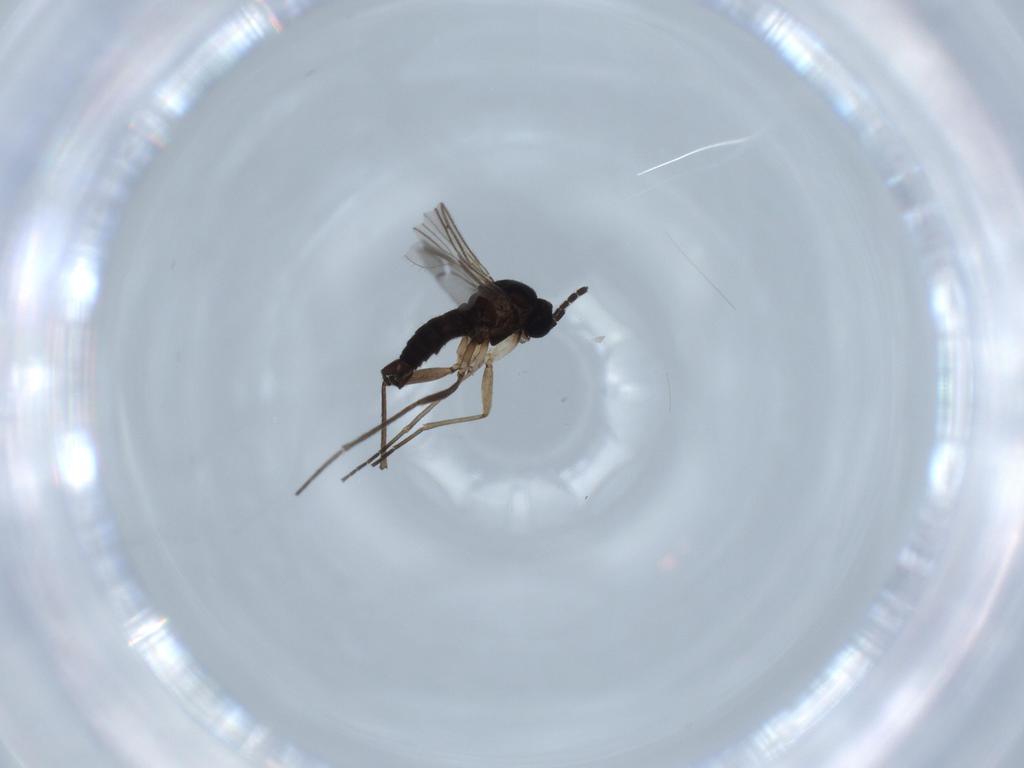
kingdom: Animalia
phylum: Arthropoda
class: Insecta
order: Diptera
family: Sciaridae
